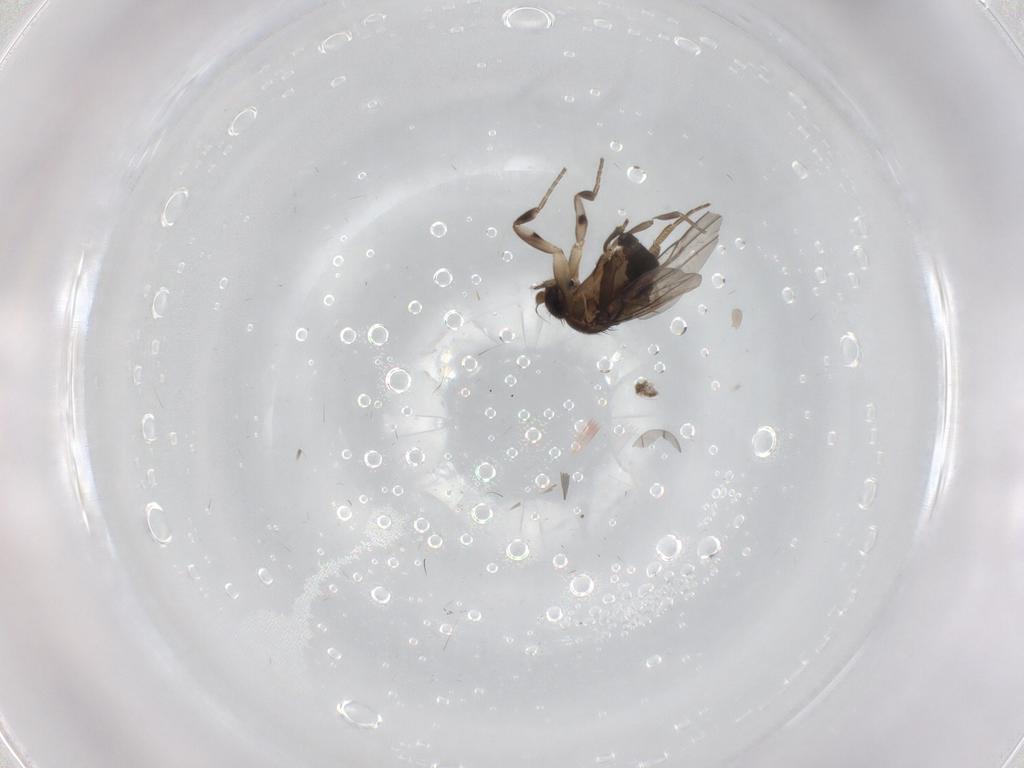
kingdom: Animalia
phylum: Arthropoda
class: Insecta
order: Diptera
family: Phoridae
